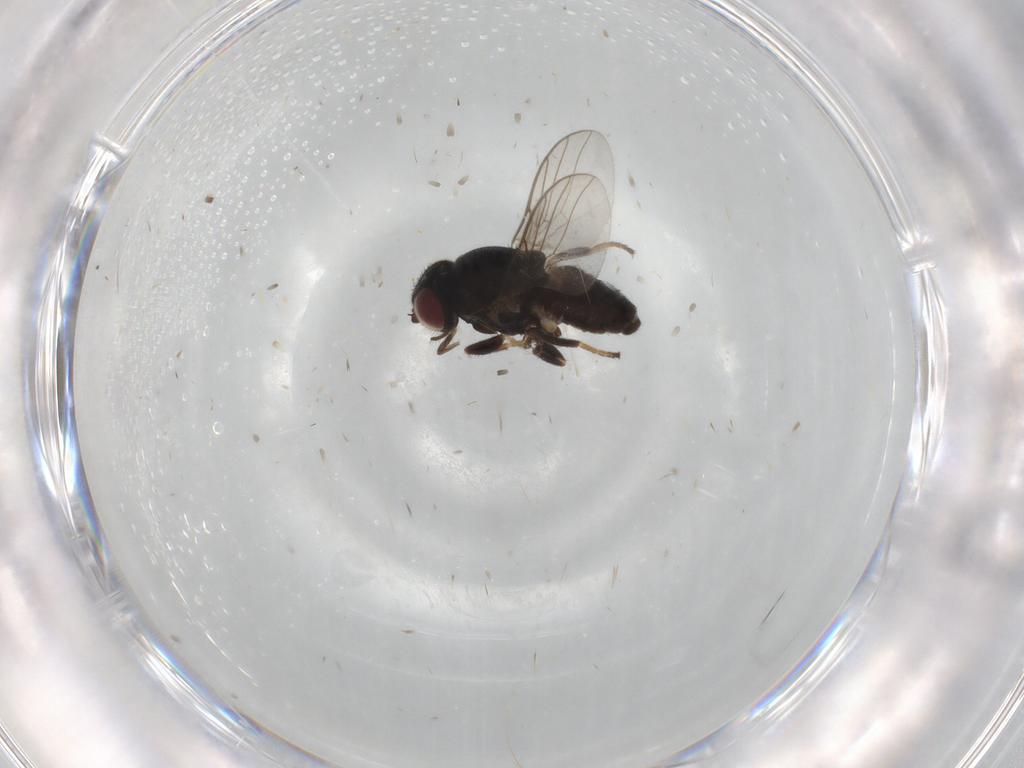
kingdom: Animalia
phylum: Arthropoda
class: Insecta
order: Diptera
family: Chloropidae
